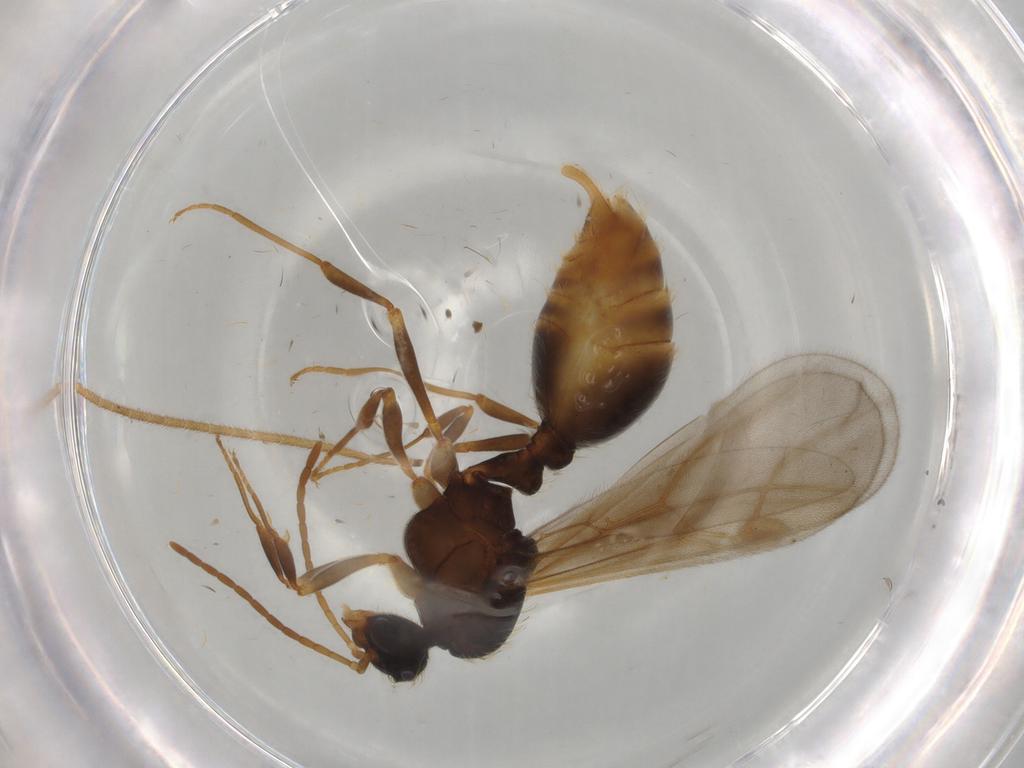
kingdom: Animalia
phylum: Arthropoda
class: Insecta
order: Hymenoptera
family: Formicidae
